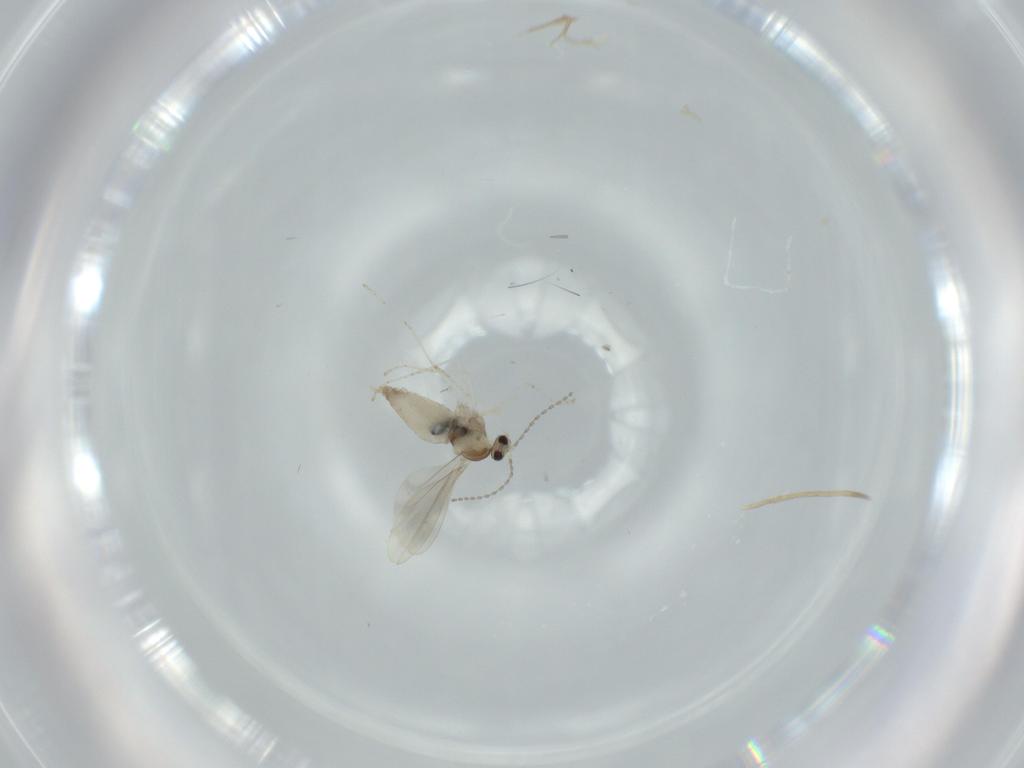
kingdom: Animalia
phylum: Arthropoda
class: Insecta
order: Diptera
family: Cecidomyiidae
